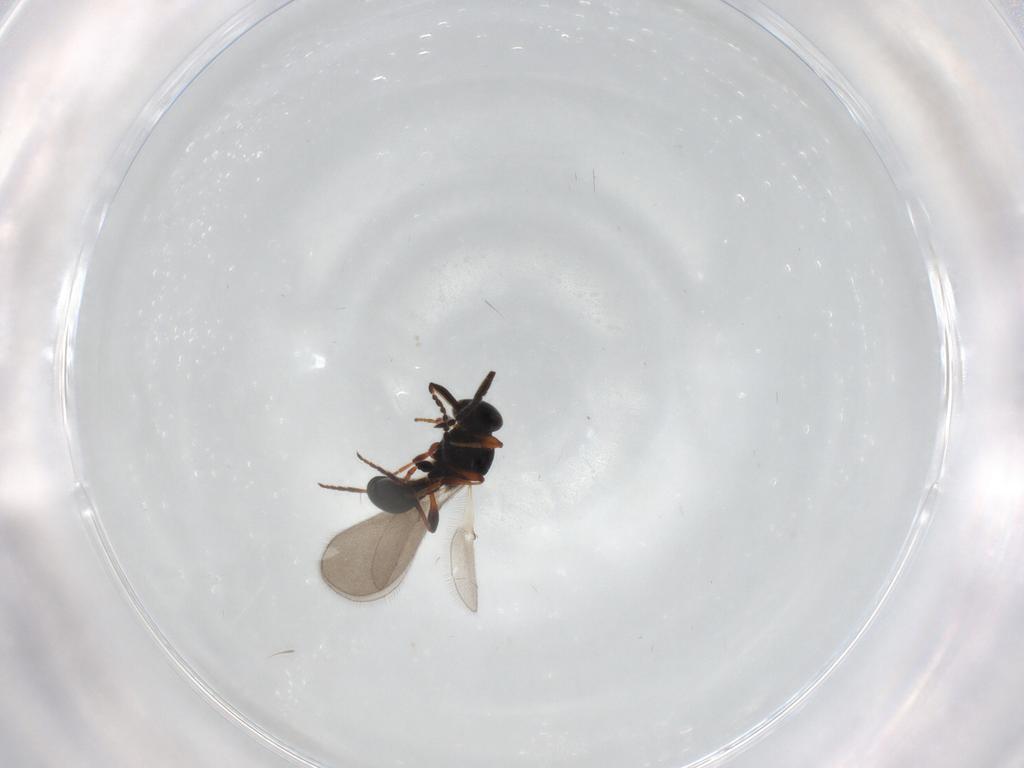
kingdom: Animalia
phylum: Arthropoda
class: Insecta
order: Hymenoptera
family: Platygastridae
